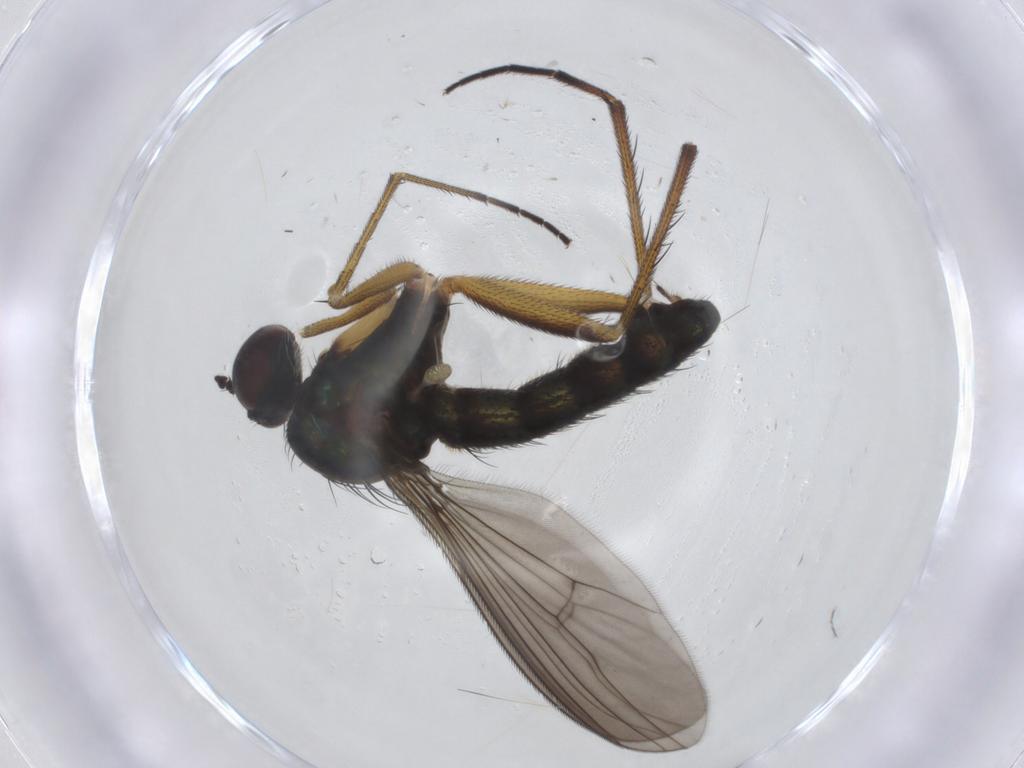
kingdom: Animalia
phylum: Arthropoda
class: Insecta
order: Diptera
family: Dolichopodidae
